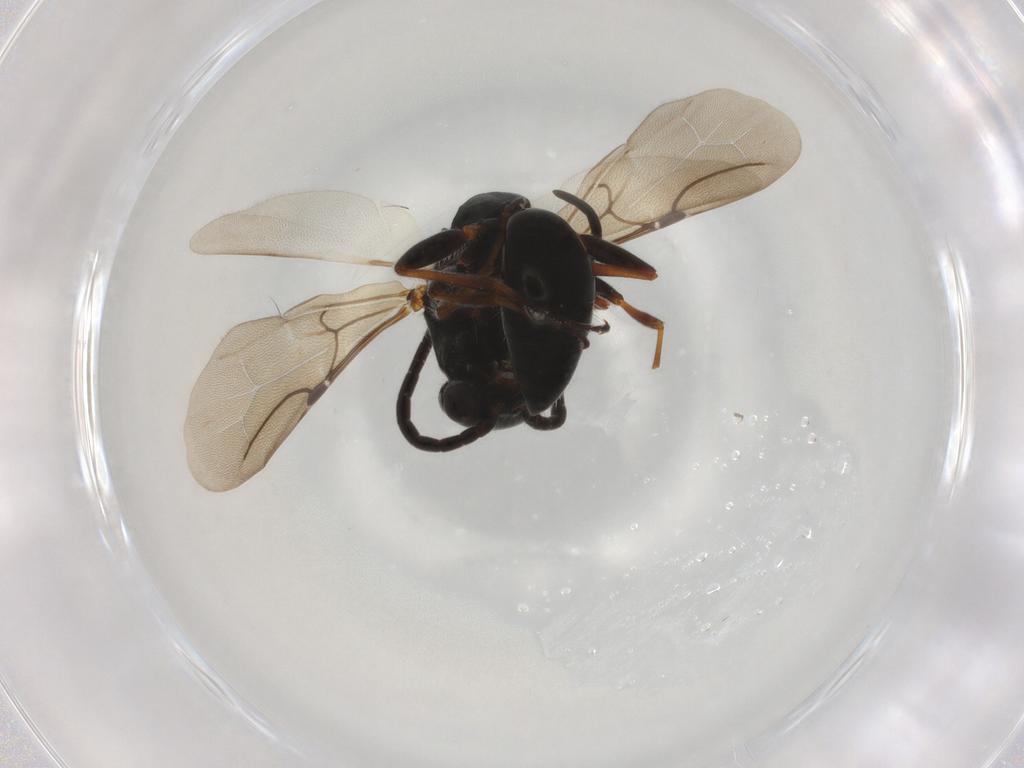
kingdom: Animalia
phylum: Arthropoda
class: Insecta
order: Hymenoptera
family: Bethylidae
